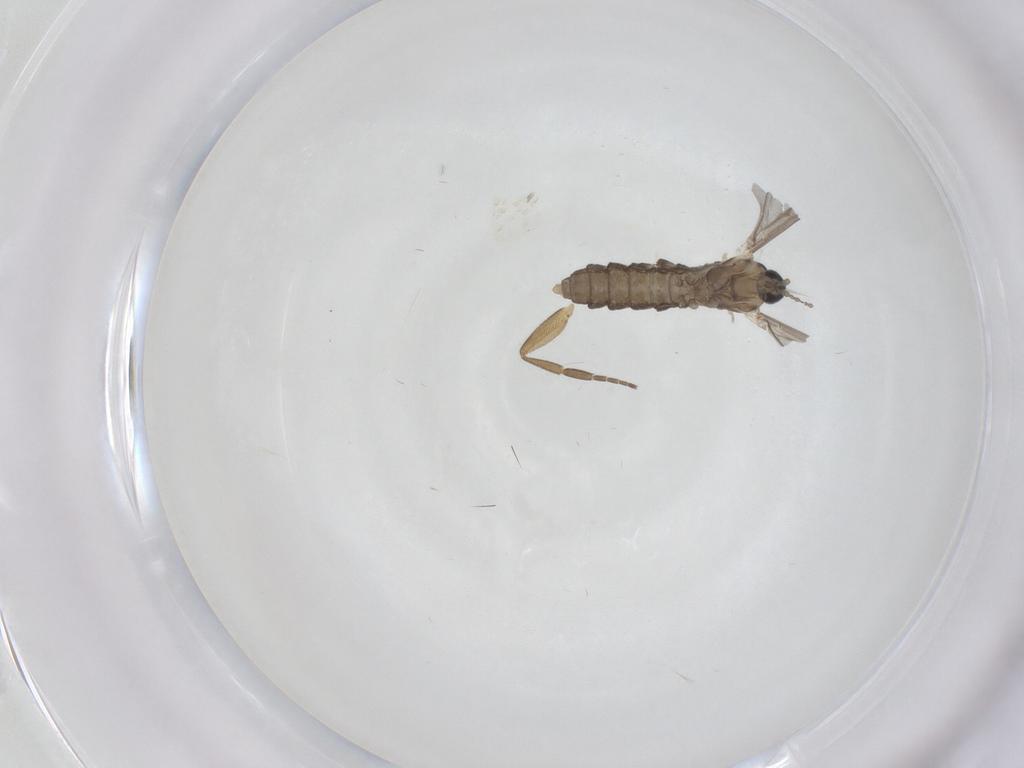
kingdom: Animalia
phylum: Arthropoda
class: Insecta
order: Diptera
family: Cecidomyiidae
